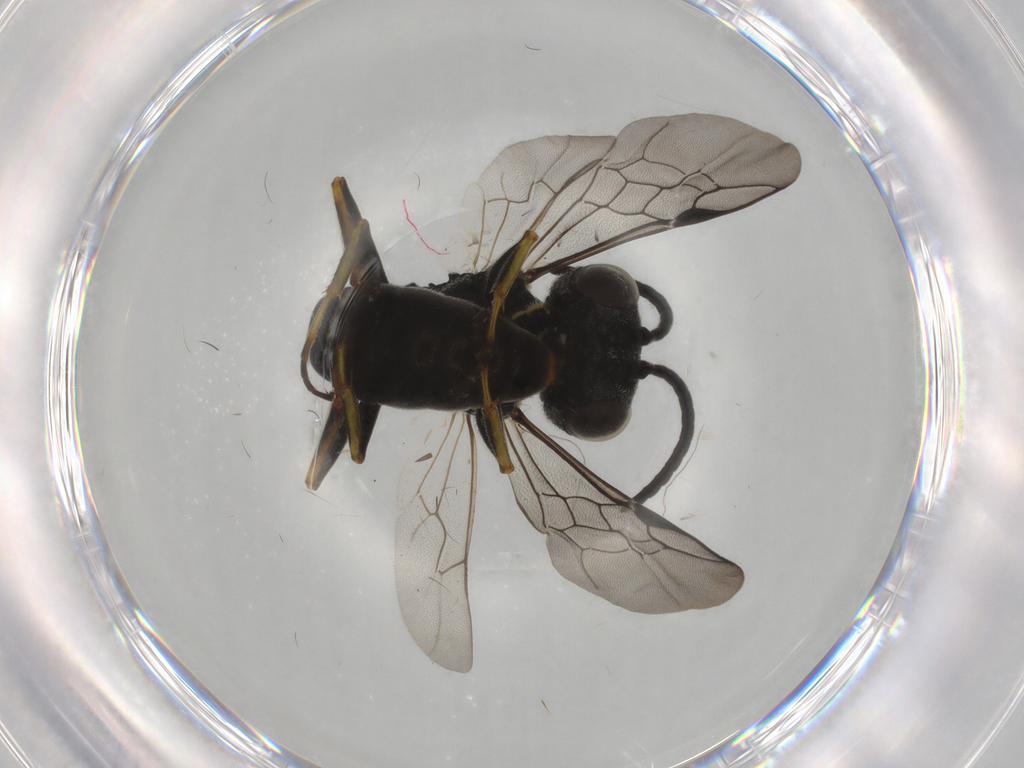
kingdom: Animalia
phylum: Arthropoda
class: Insecta
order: Hymenoptera
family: Crabronidae
